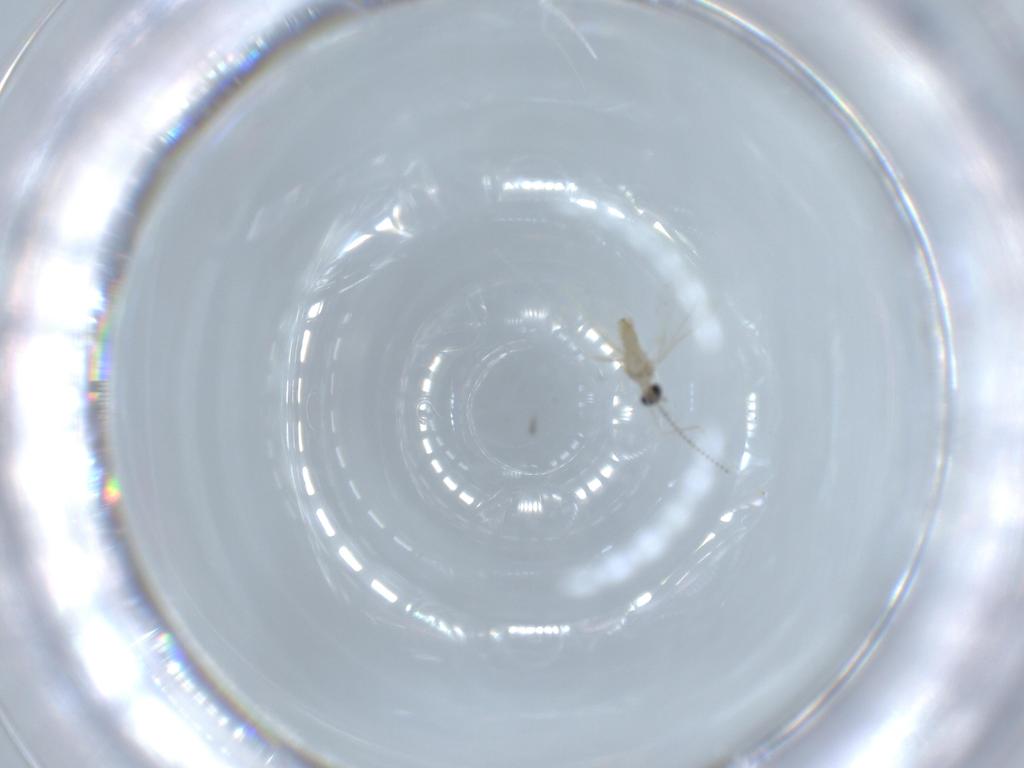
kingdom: Animalia
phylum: Arthropoda
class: Insecta
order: Diptera
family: Cecidomyiidae
